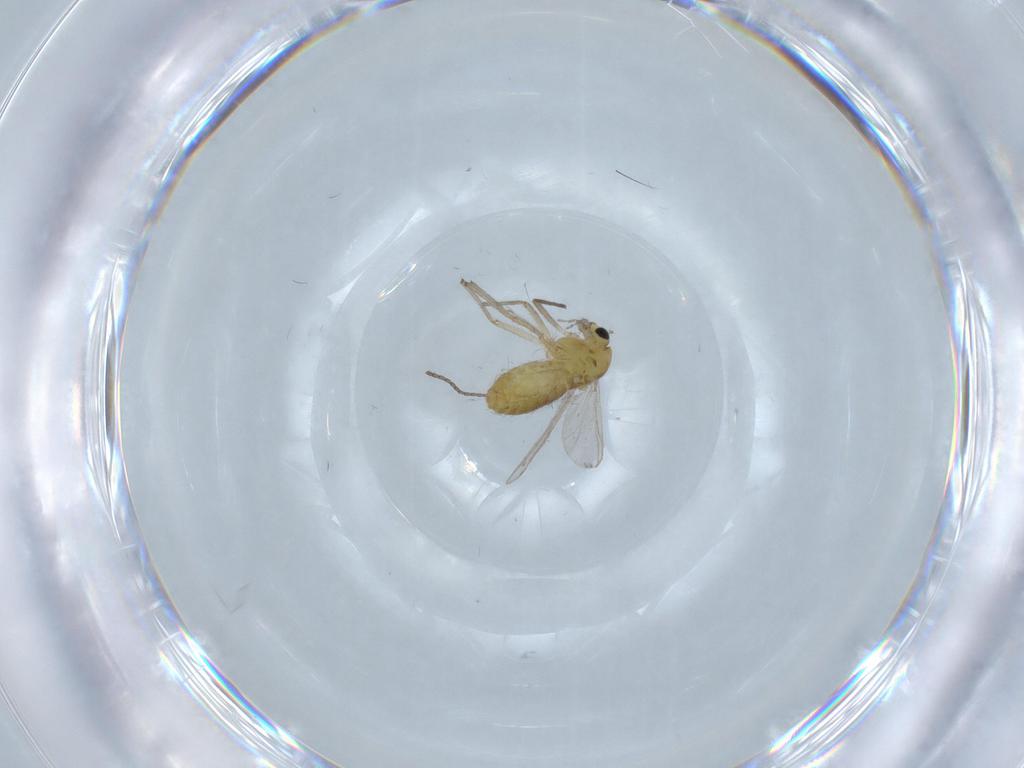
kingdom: Animalia
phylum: Arthropoda
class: Insecta
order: Diptera
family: Chironomidae
